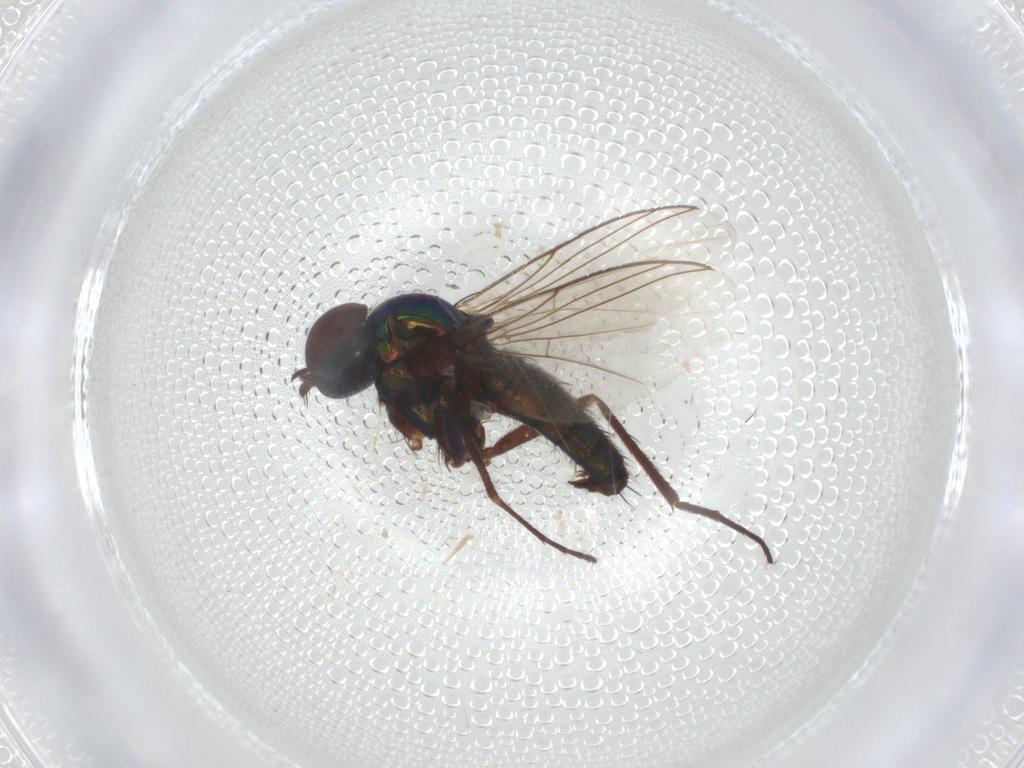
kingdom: Animalia
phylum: Arthropoda
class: Insecta
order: Diptera
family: Dolichopodidae
